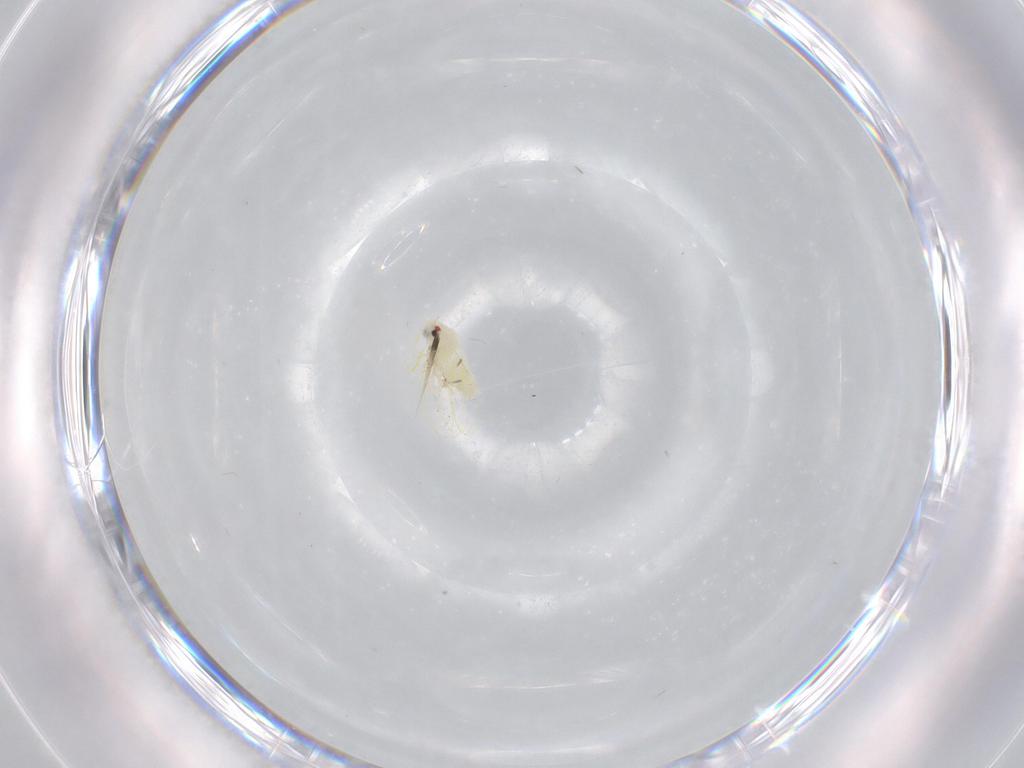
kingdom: Animalia
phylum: Arthropoda
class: Insecta
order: Hemiptera
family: Aleyrodidae
